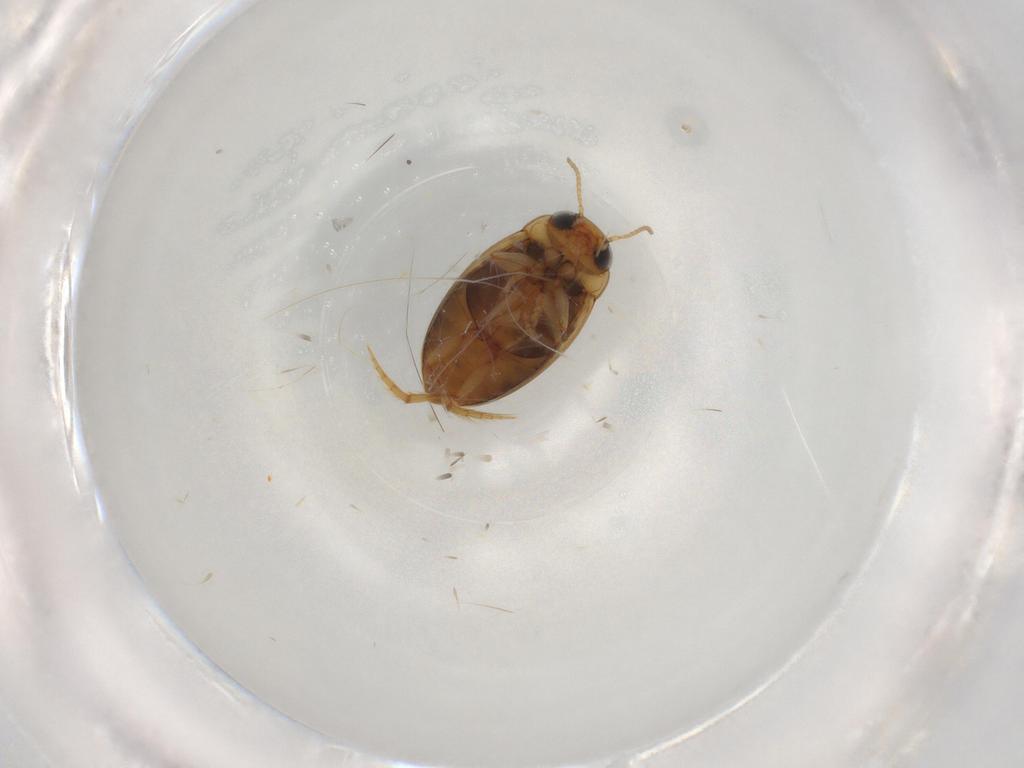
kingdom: Animalia
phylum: Arthropoda
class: Insecta
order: Coleoptera
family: Dytiscidae
